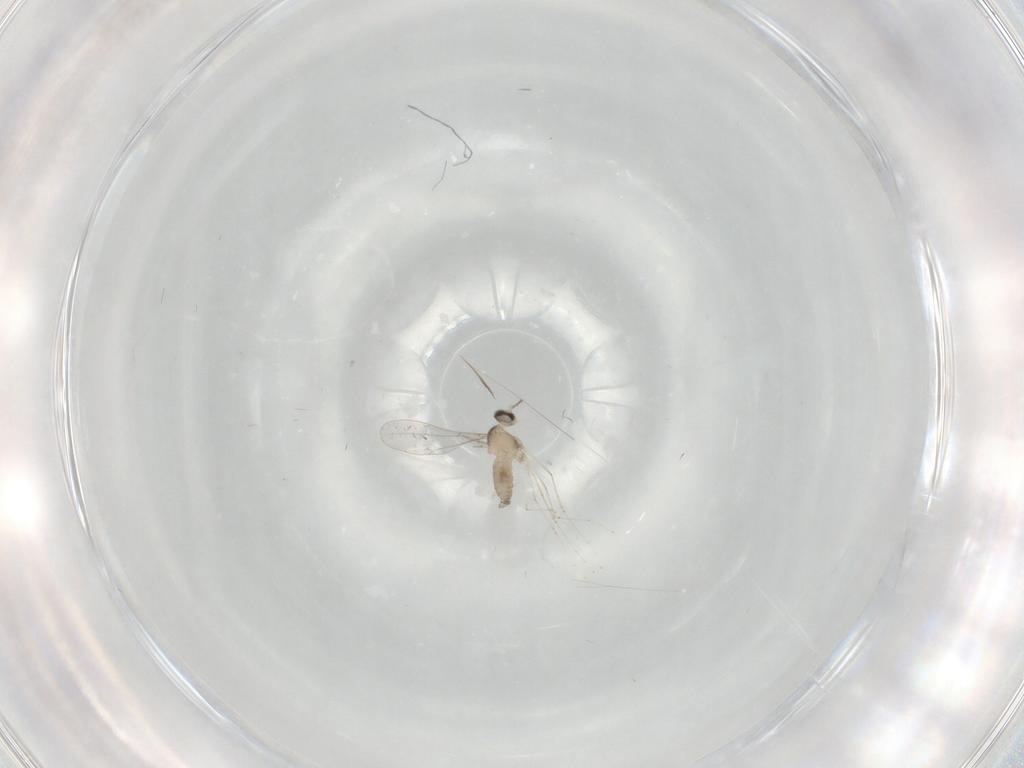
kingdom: Animalia
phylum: Arthropoda
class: Insecta
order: Diptera
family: Cecidomyiidae
